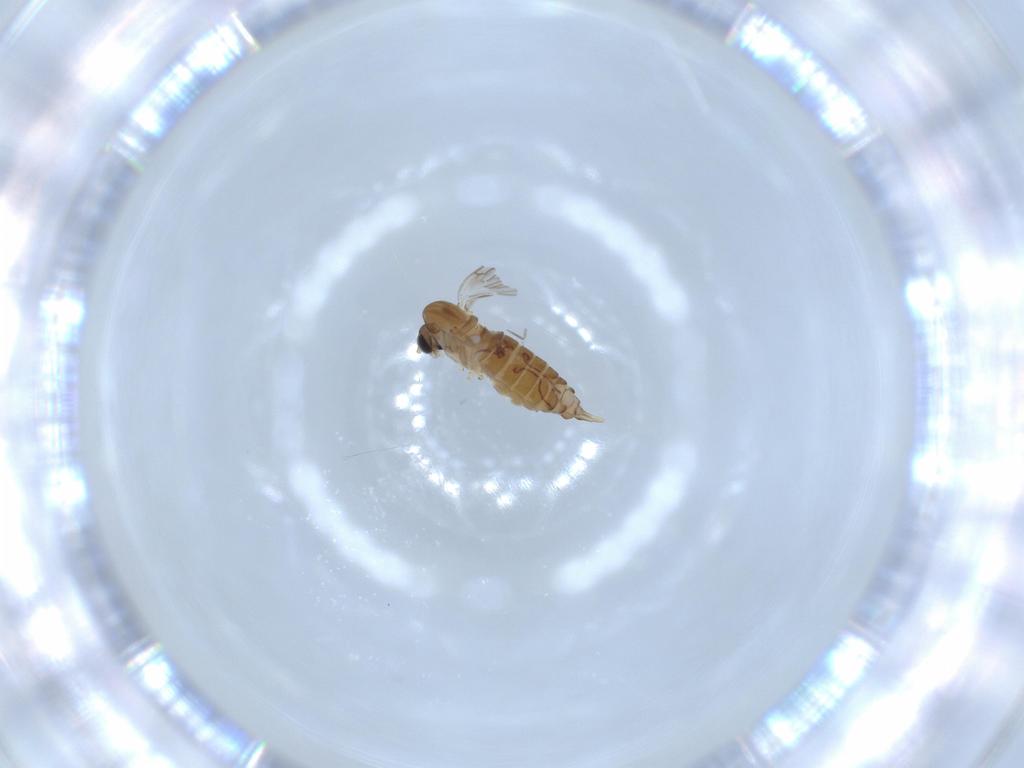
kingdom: Animalia
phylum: Arthropoda
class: Insecta
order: Diptera
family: Psychodidae
